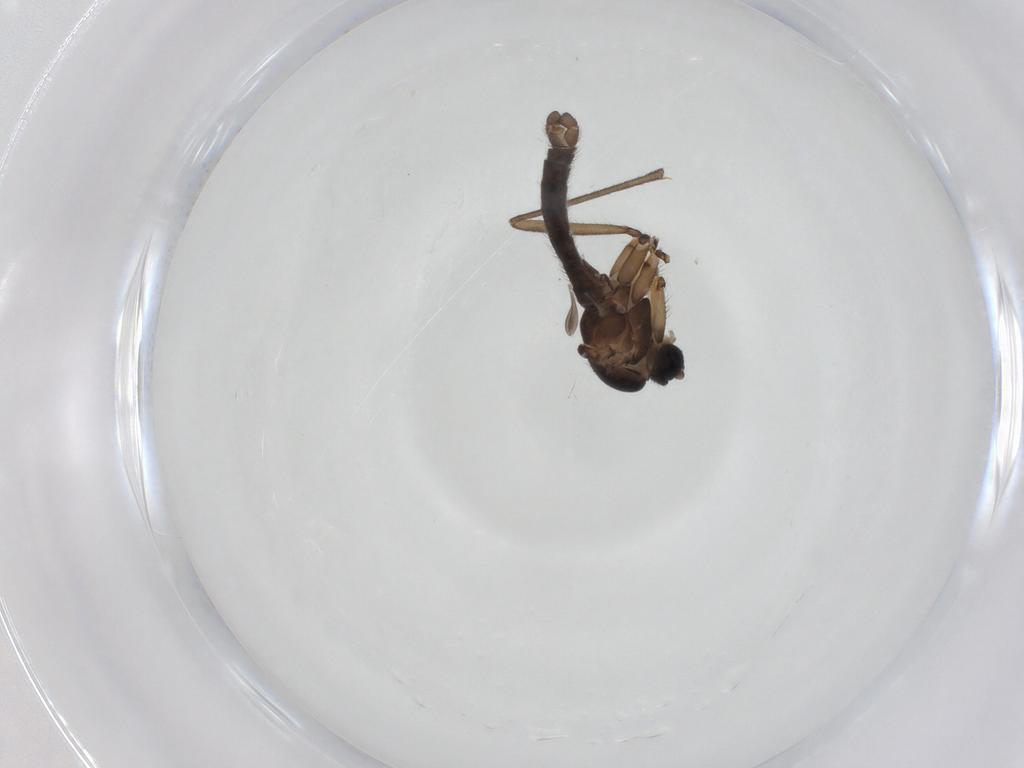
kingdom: Animalia
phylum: Arthropoda
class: Insecta
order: Diptera
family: Sciaridae
